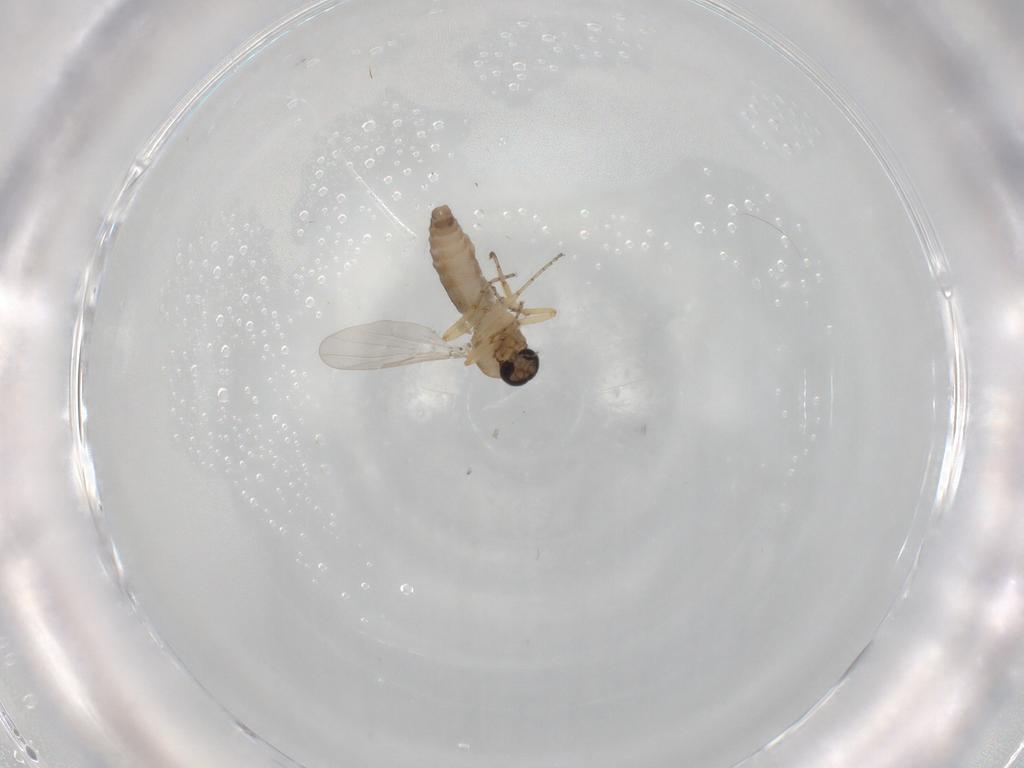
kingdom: Animalia
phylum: Arthropoda
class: Insecta
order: Diptera
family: Ceratopogonidae
